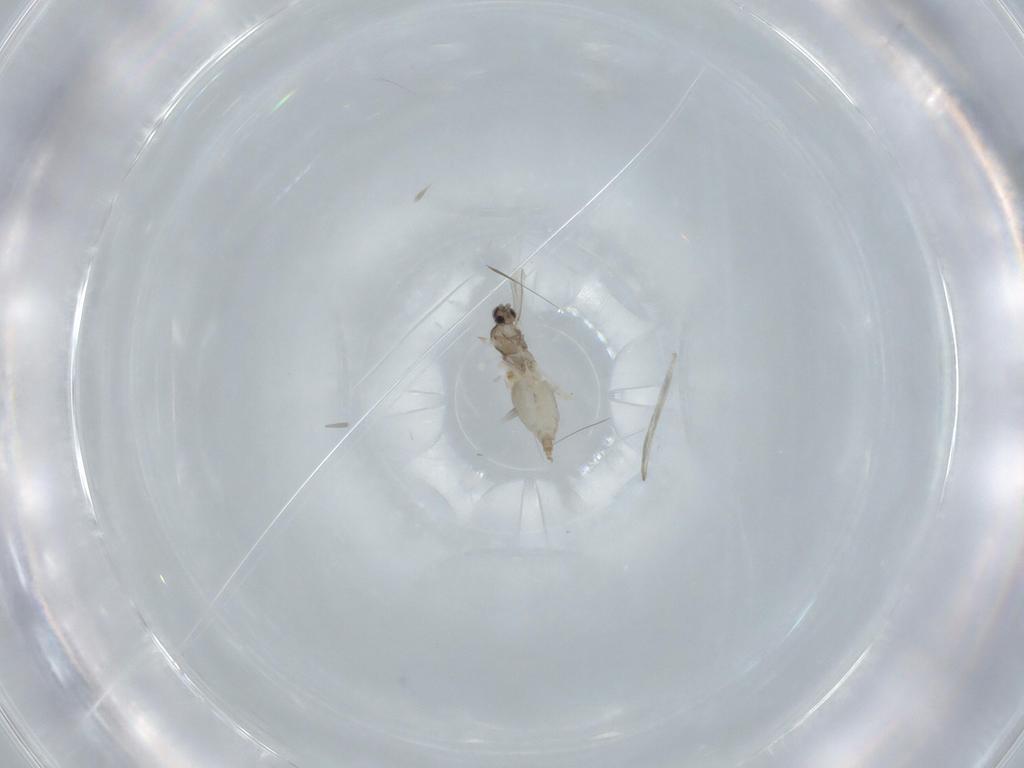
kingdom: Animalia
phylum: Arthropoda
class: Insecta
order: Diptera
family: Cecidomyiidae
